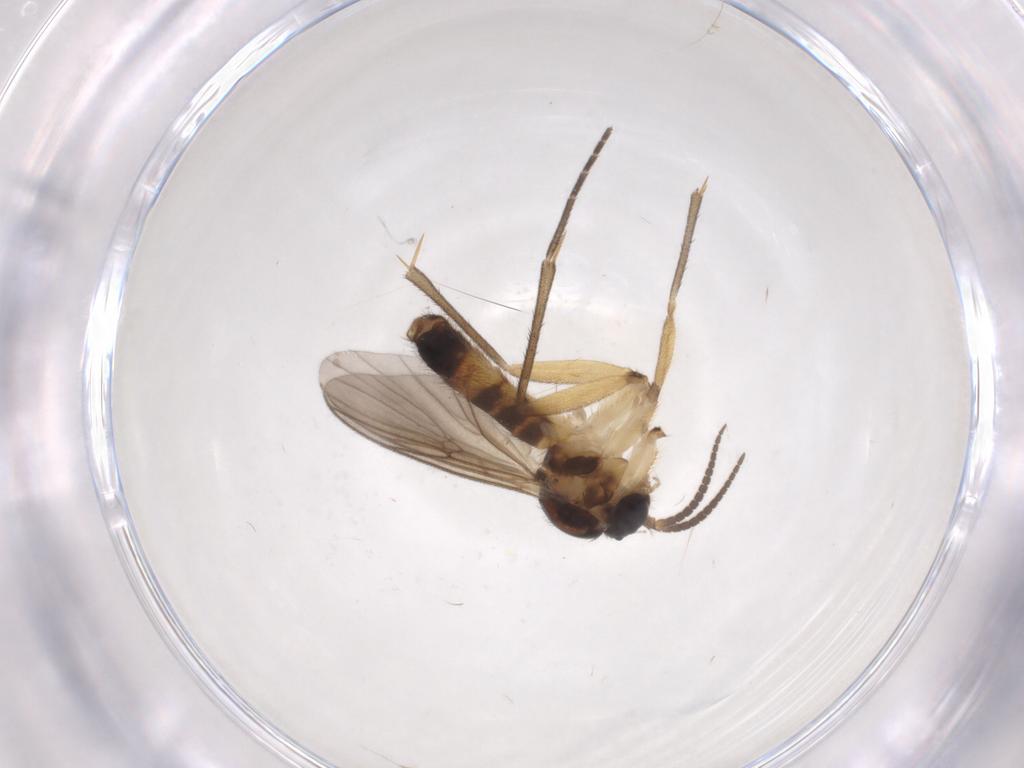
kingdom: Animalia
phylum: Arthropoda
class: Insecta
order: Diptera
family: Mycetophilidae
